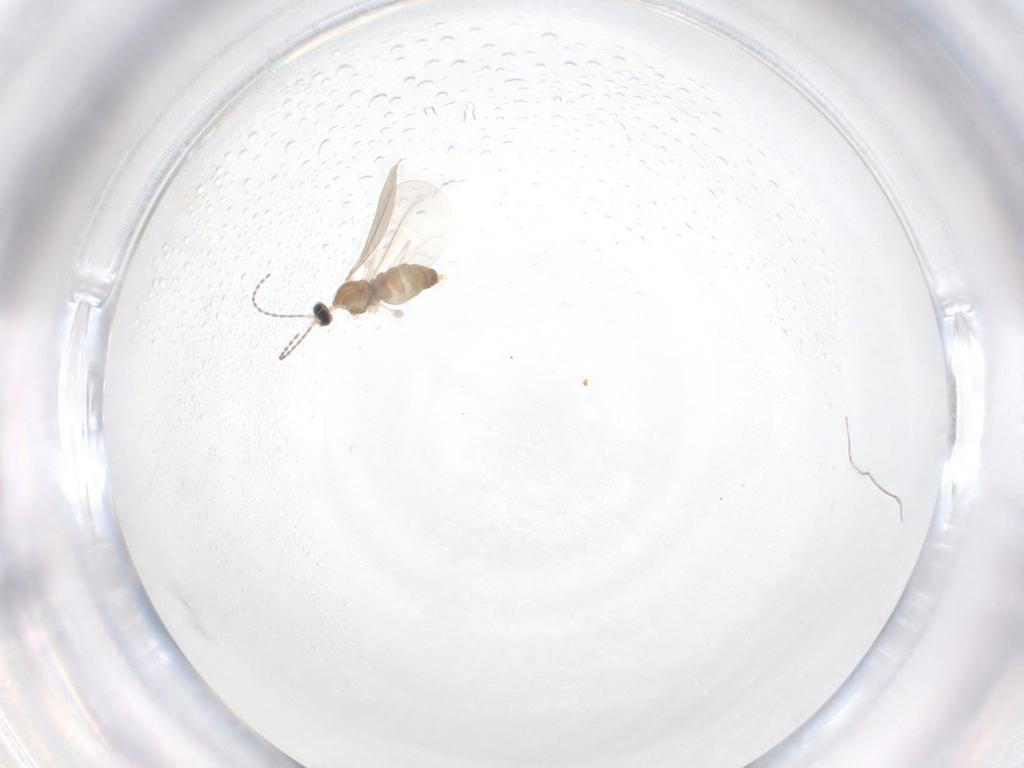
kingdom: Animalia
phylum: Arthropoda
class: Insecta
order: Diptera
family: Cecidomyiidae
